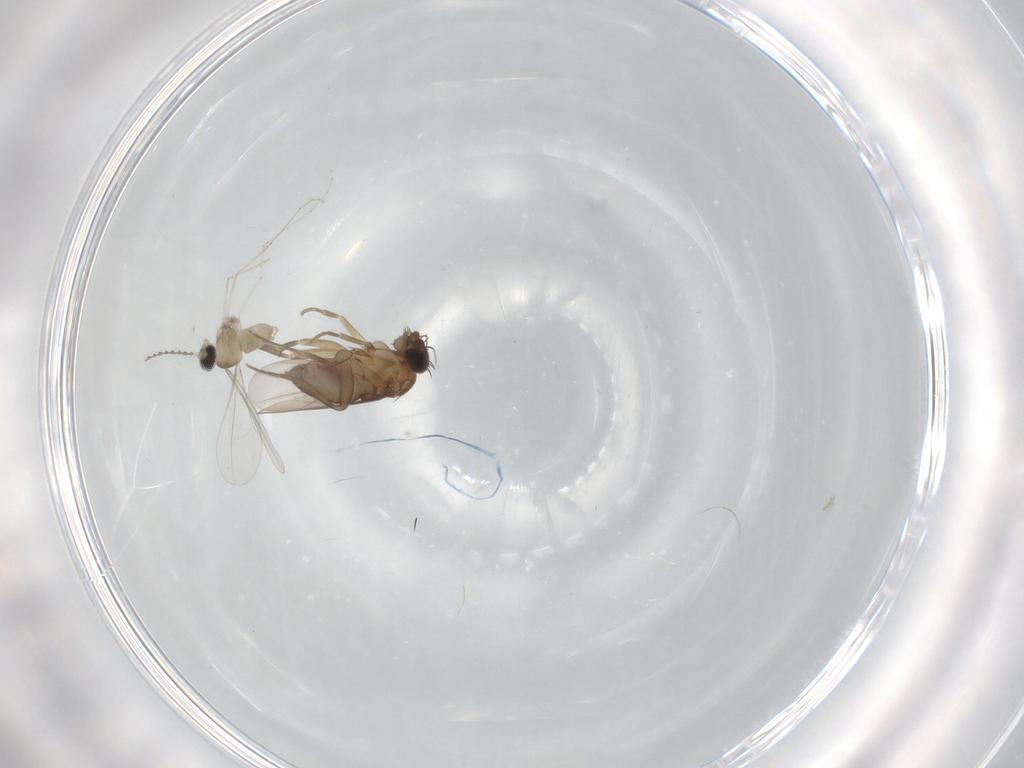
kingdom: Animalia
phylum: Arthropoda
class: Insecta
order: Diptera
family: Phoridae
